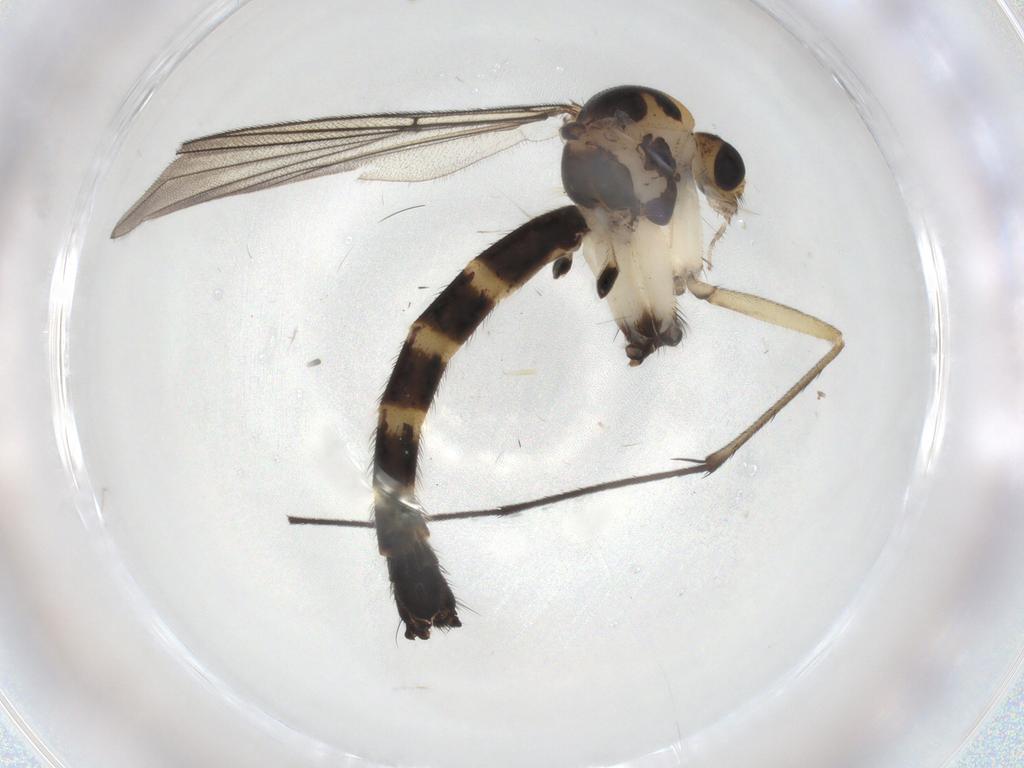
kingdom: Animalia
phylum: Arthropoda
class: Insecta
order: Diptera
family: Mycetophilidae
